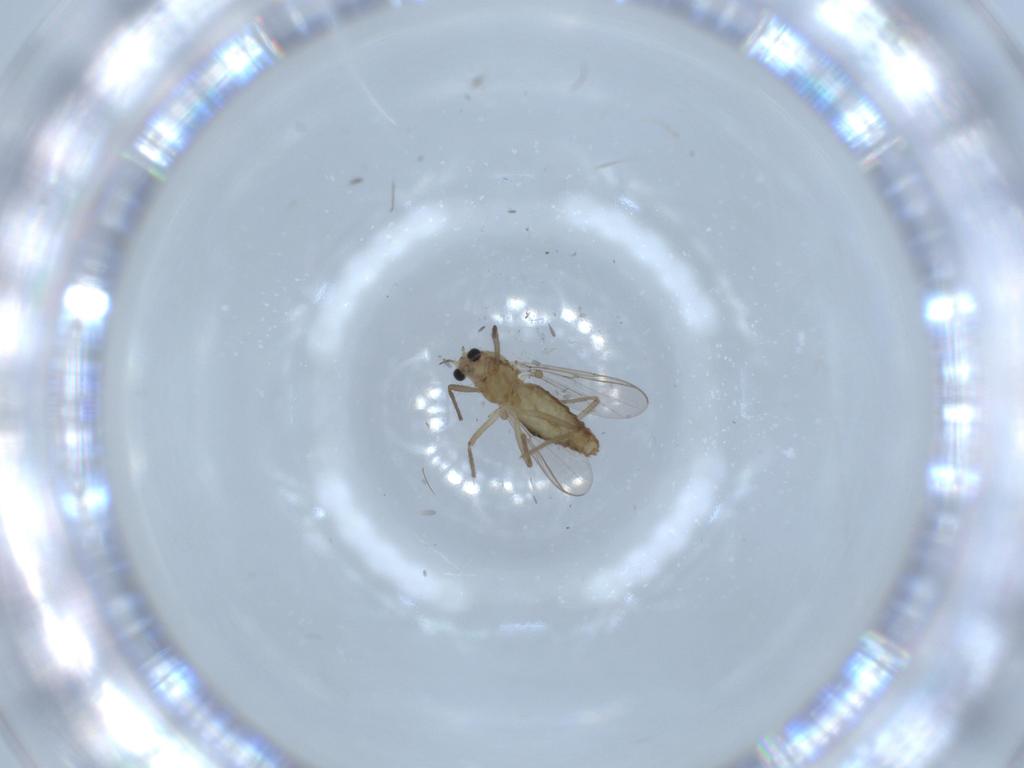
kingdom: Animalia
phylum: Arthropoda
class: Insecta
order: Diptera
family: Chironomidae
